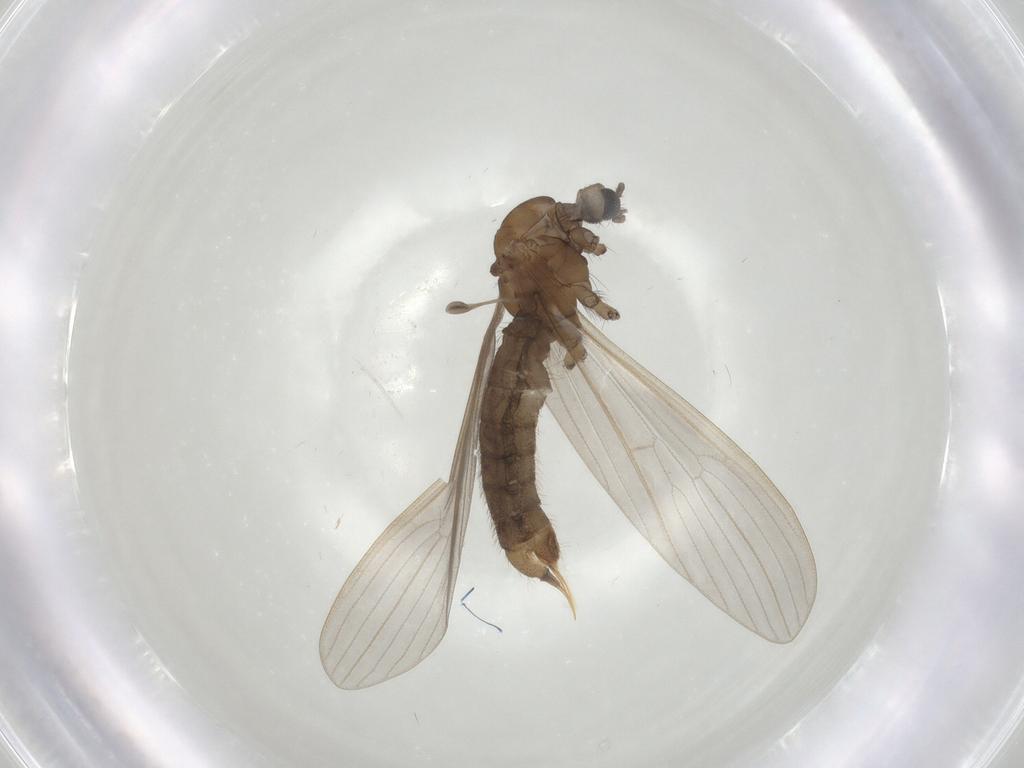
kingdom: Animalia
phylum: Arthropoda
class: Insecta
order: Diptera
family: Limoniidae
